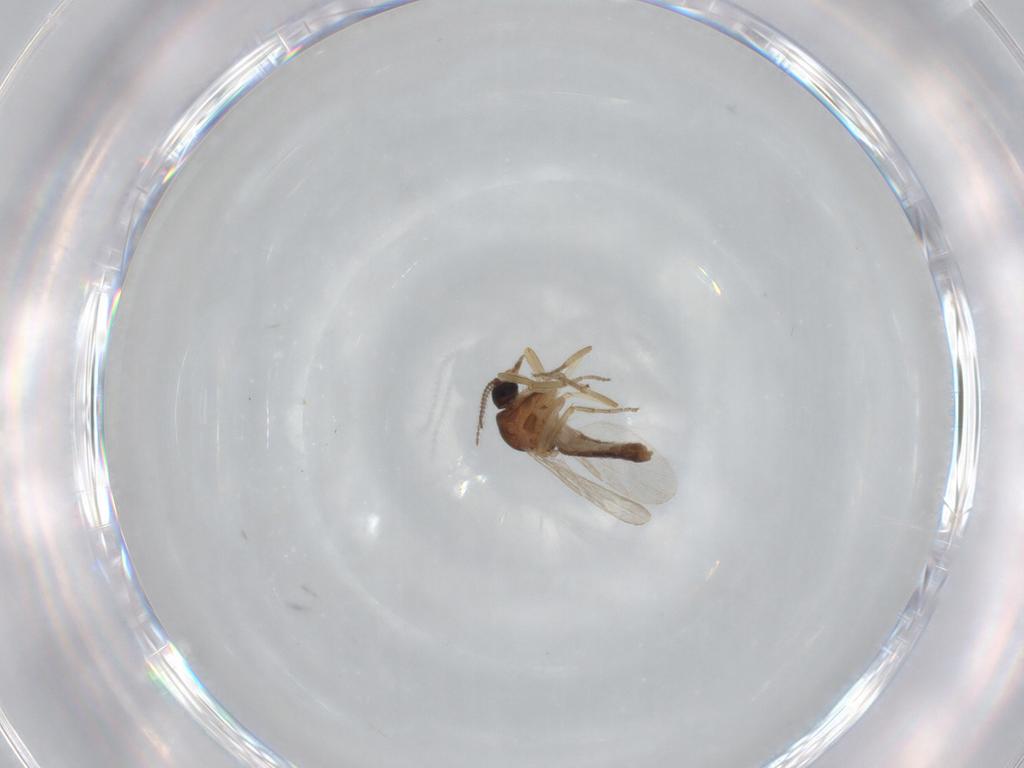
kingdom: Animalia
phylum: Arthropoda
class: Insecta
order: Diptera
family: Ceratopogonidae
